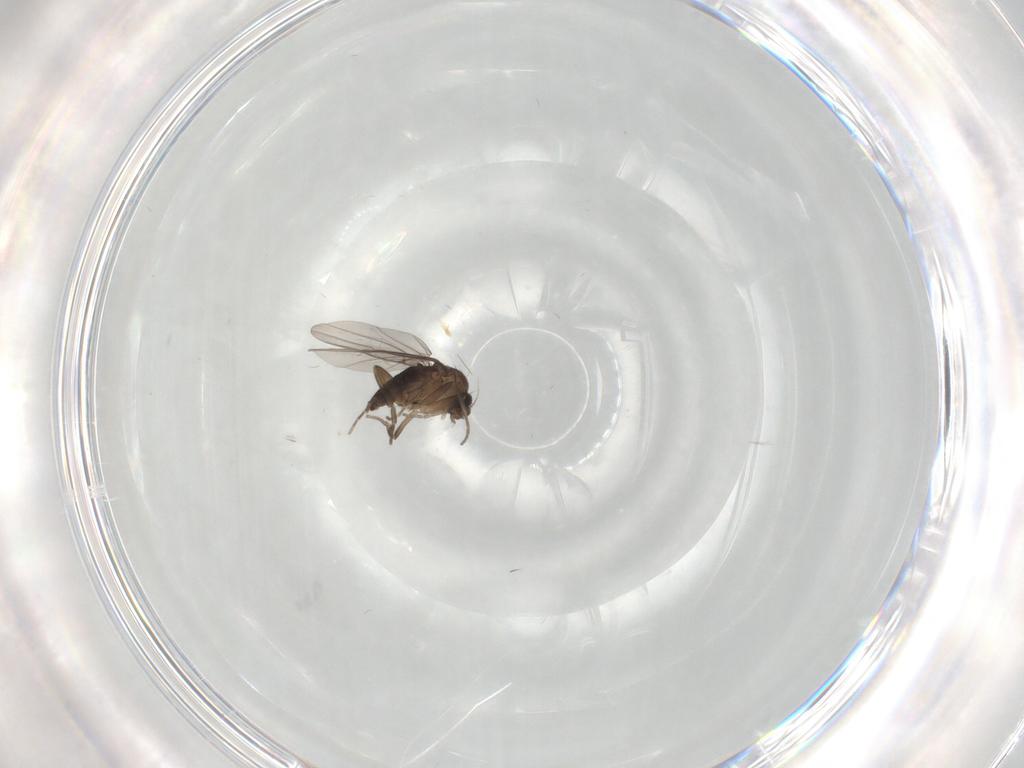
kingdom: Animalia
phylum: Arthropoda
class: Insecta
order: Diptera
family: Phoridae
